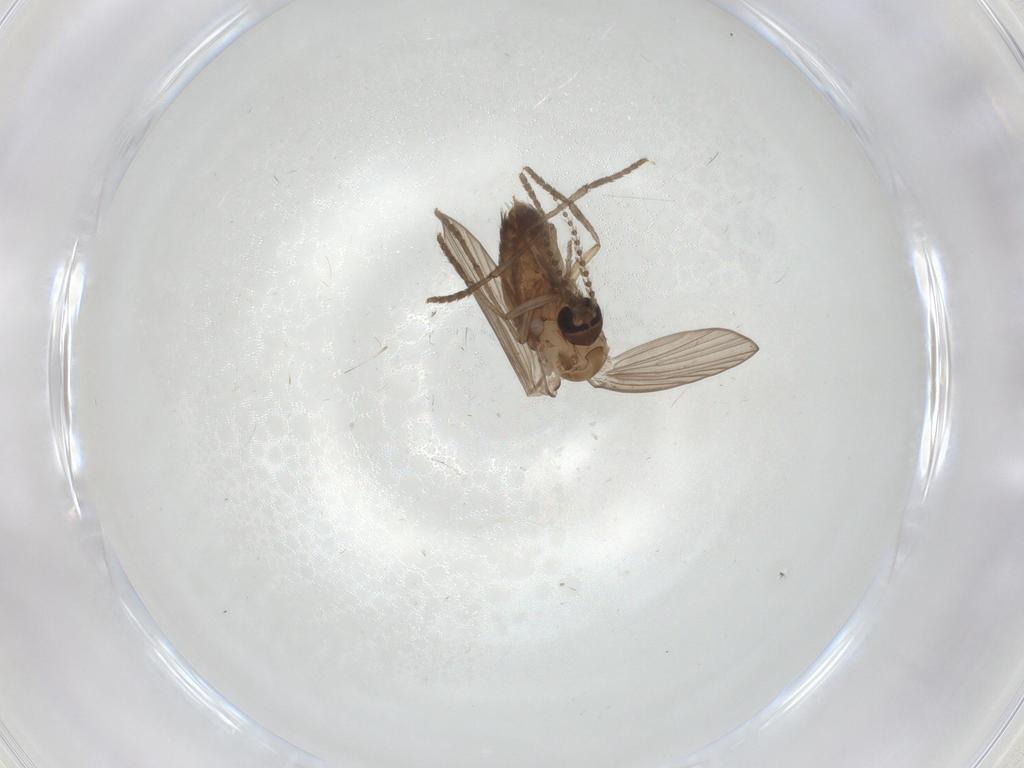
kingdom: Animalia
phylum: Arthropoda
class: Insecta
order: Diptera
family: Psychodidae
